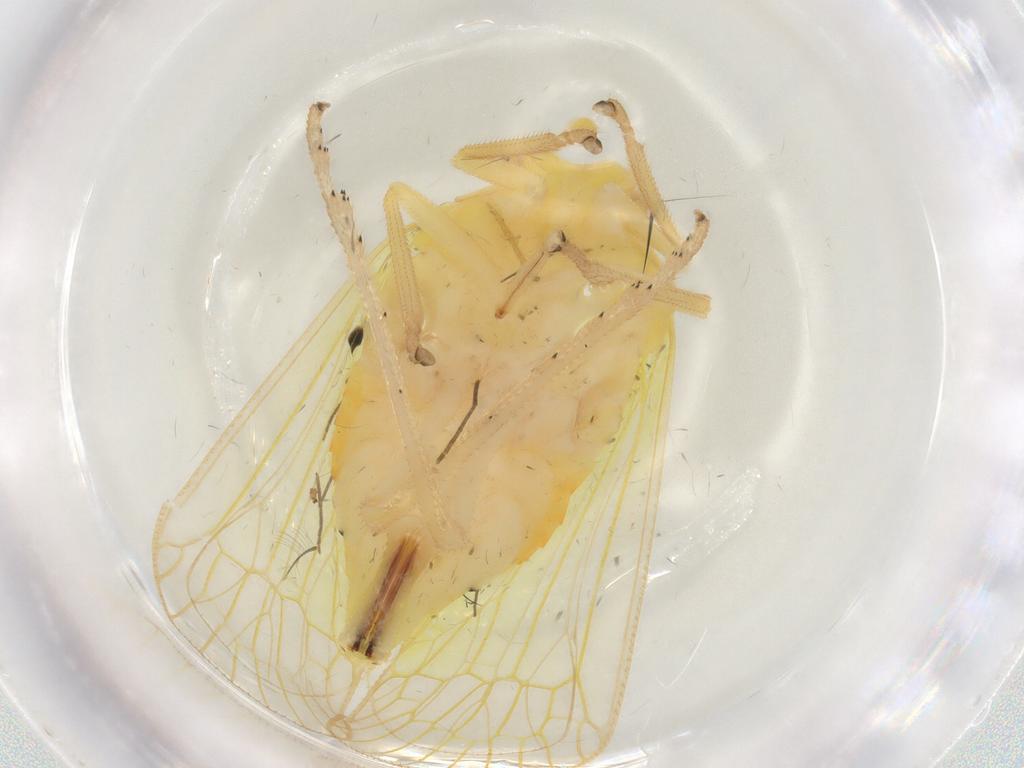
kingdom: Animalia
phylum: Arthropoda
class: Insecta
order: Hemiptera
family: Tropiduchidae
